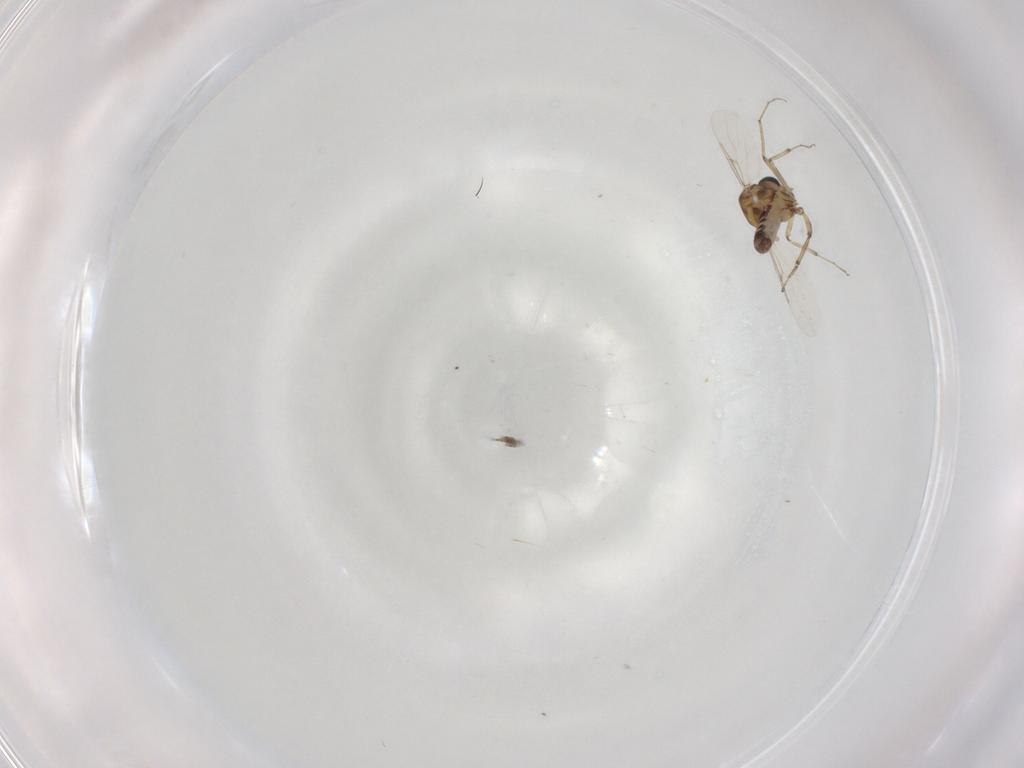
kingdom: Animalia
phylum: Arthropoda
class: Insecta
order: Diptera
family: Ceratopogonidae
